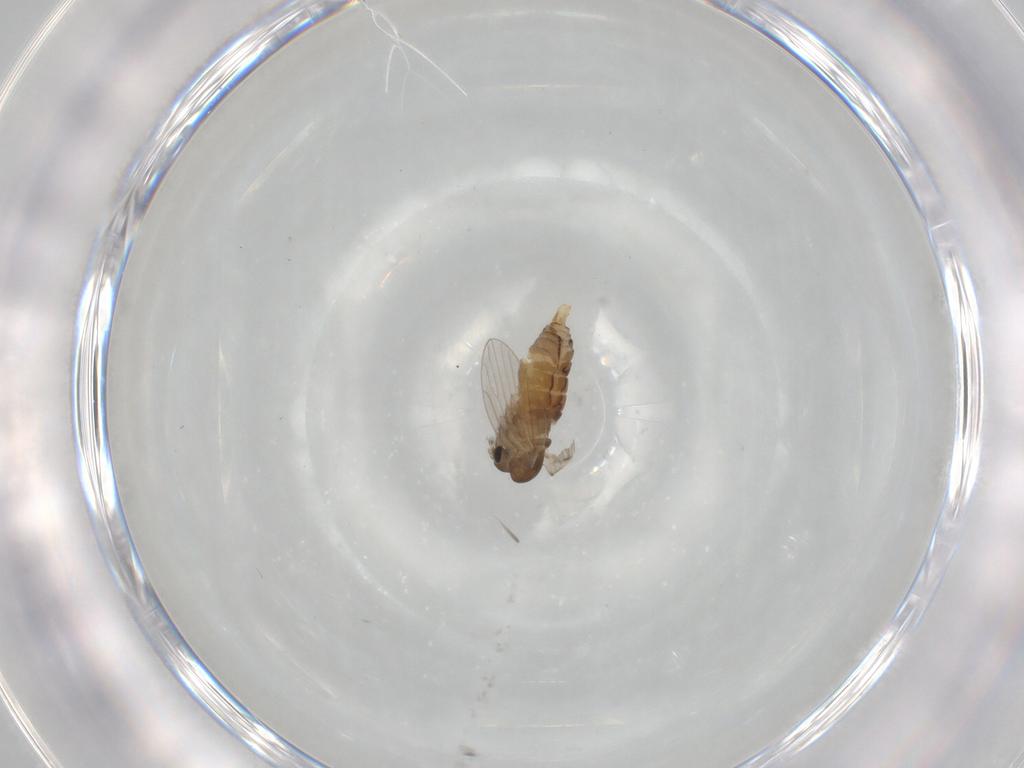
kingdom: Animalia
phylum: Arthropoda
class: Insecta
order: Diptera
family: Psychodidae
